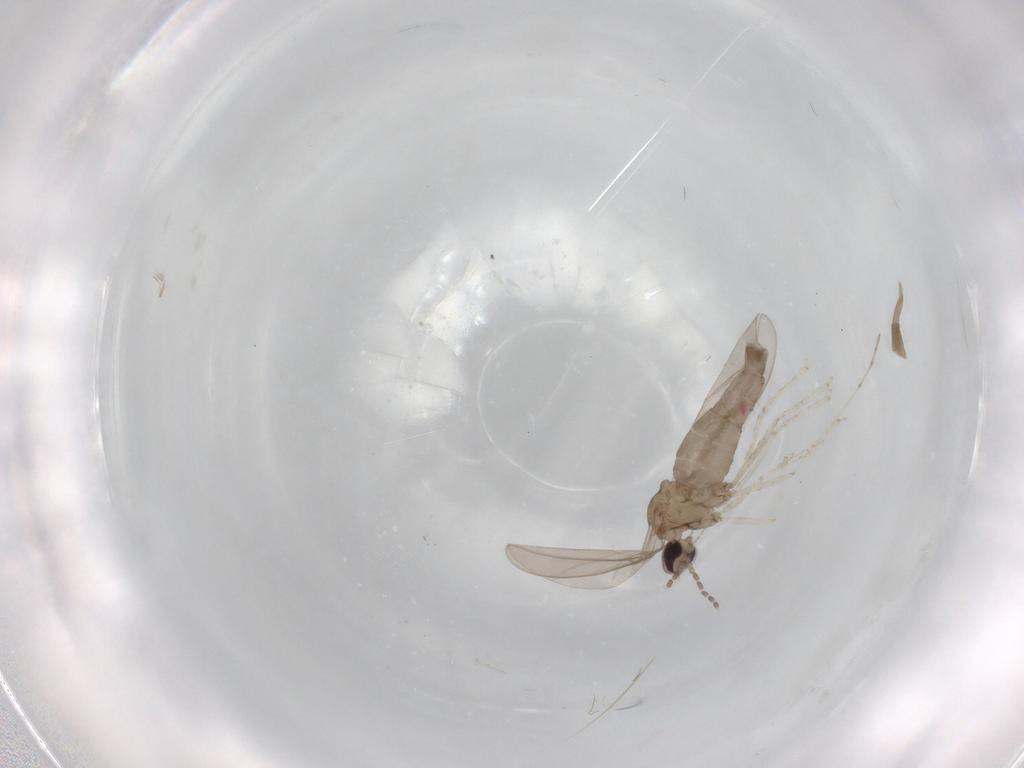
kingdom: Animalia
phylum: Arthropoda
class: Insecta
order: Diptera
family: Cecidomyiidae
